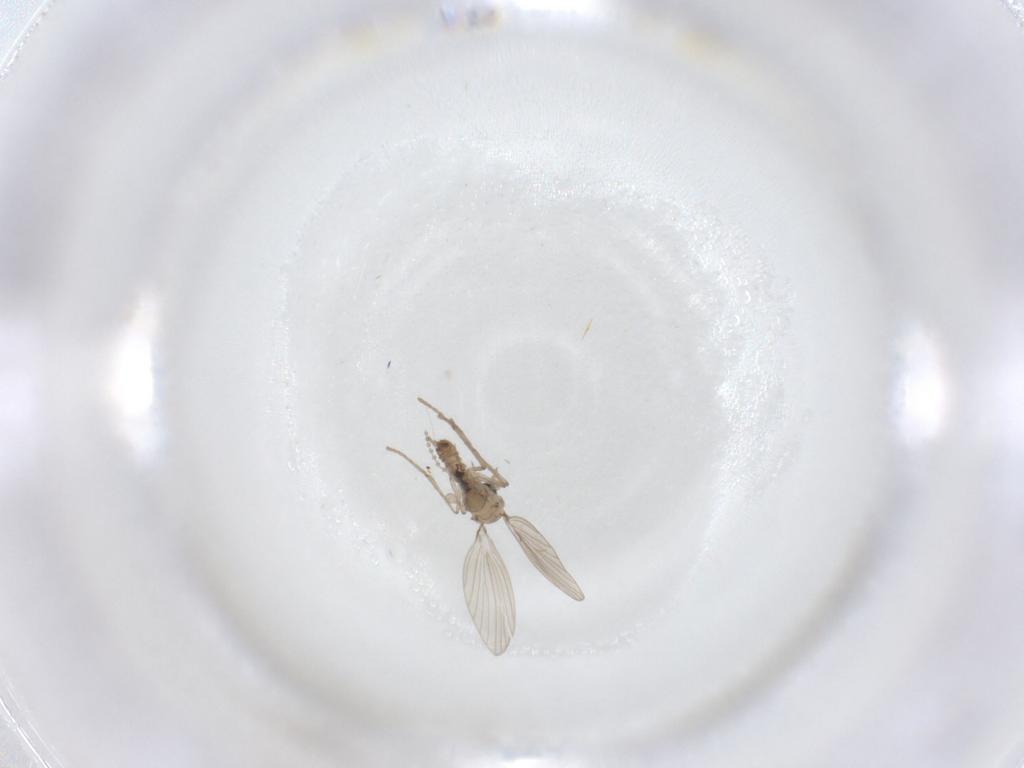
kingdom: Animalia
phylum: Arthropoda
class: Insecta
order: Diptera
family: Psychodidae
